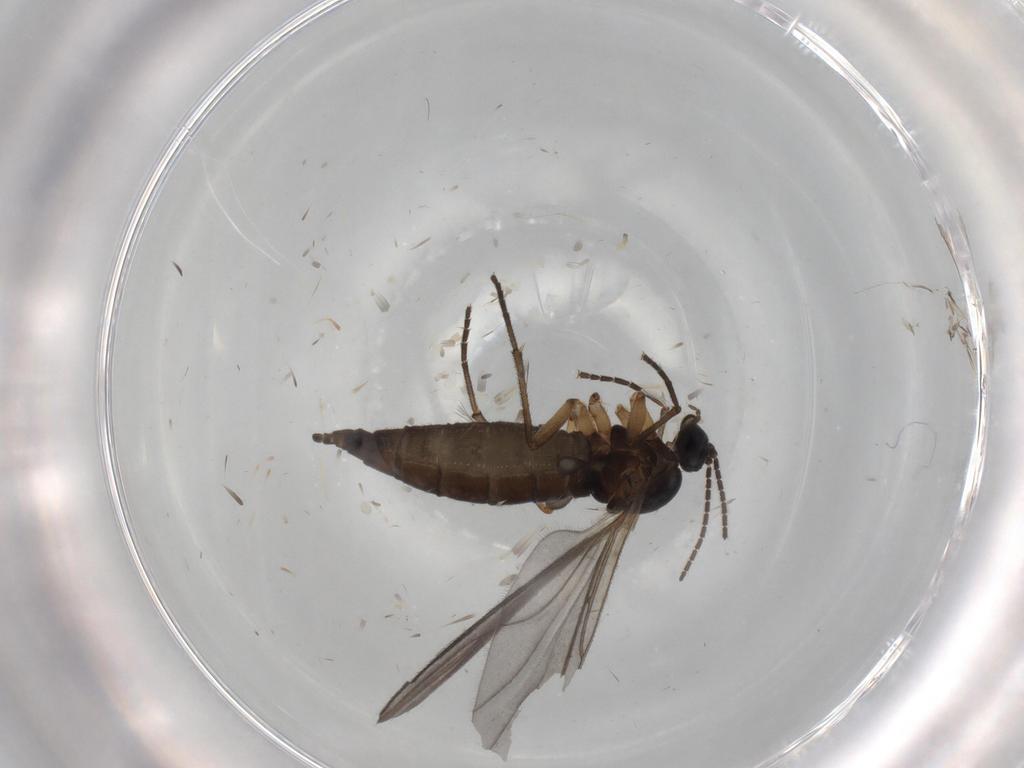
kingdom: Animalia
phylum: Arthropoda
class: Insecta
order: Diptera
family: Sciaridae
